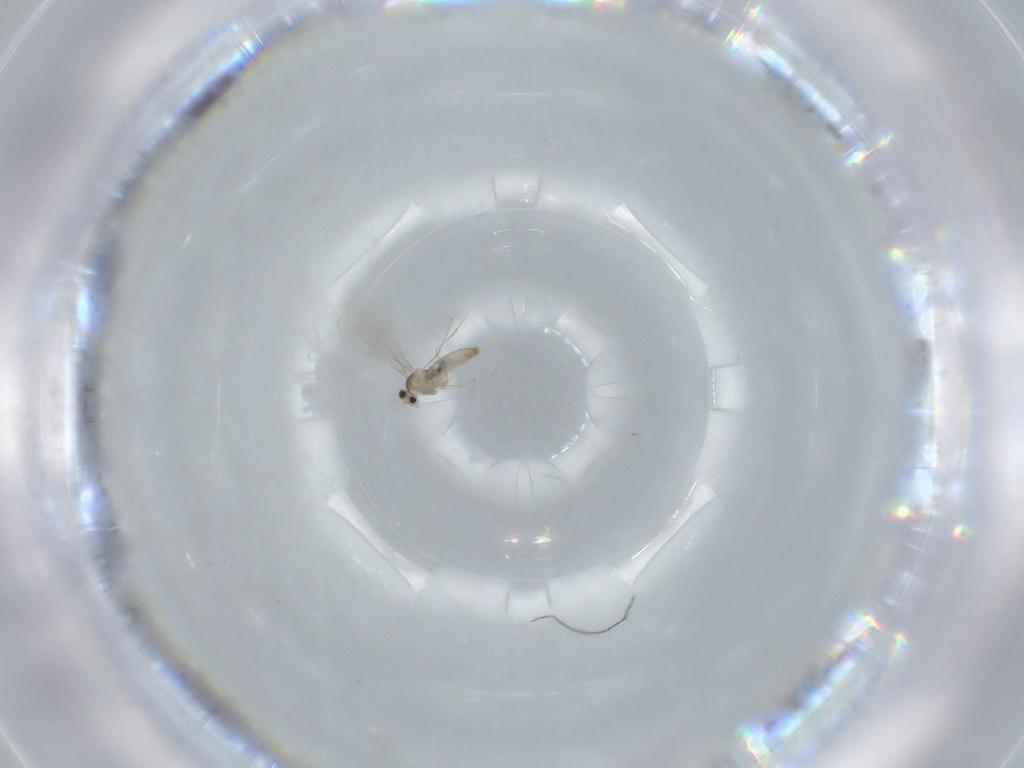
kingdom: Animalia
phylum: Arthropoda
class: Insecta
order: Diptera
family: Cecidomyiidae
